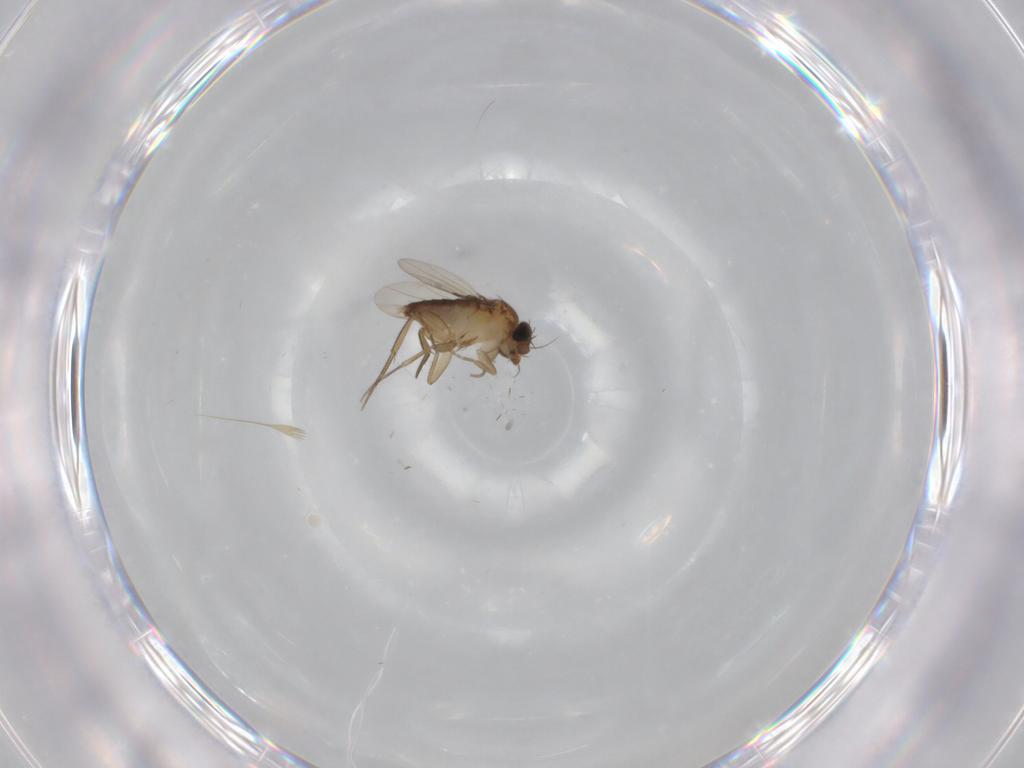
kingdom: Animalia
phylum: Arthropoda
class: Insecta
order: Diptera
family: Phoridae
